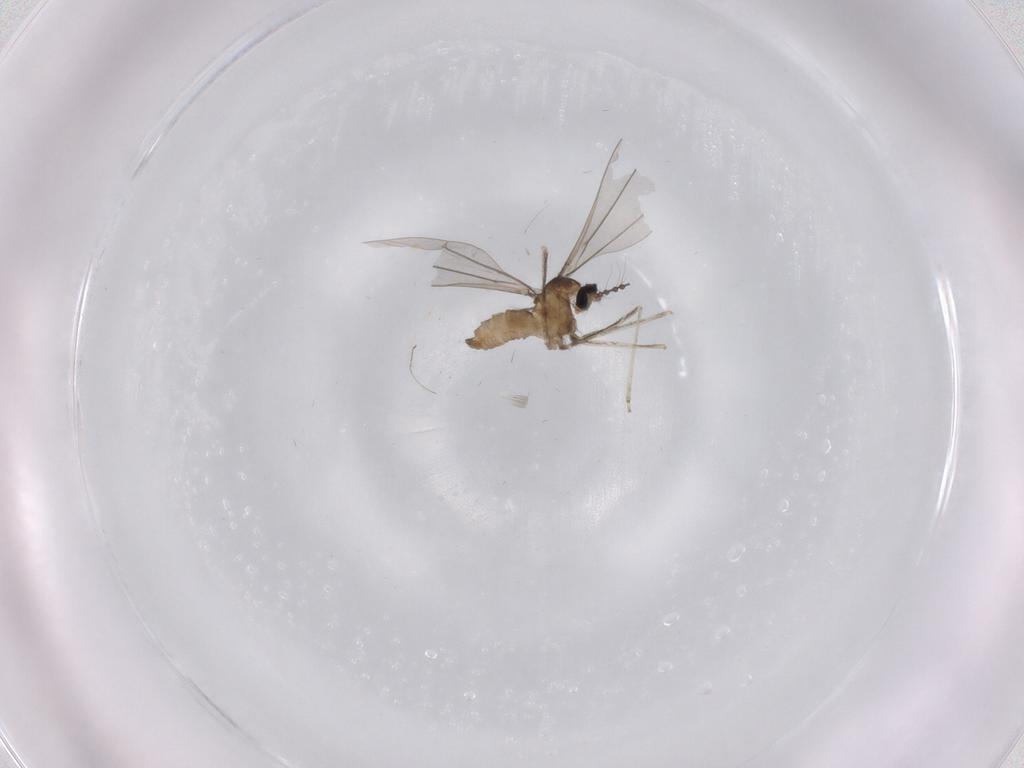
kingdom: Animalia
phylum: Arthropoda
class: Insecta
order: Diptera
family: Cecidomyiidae
